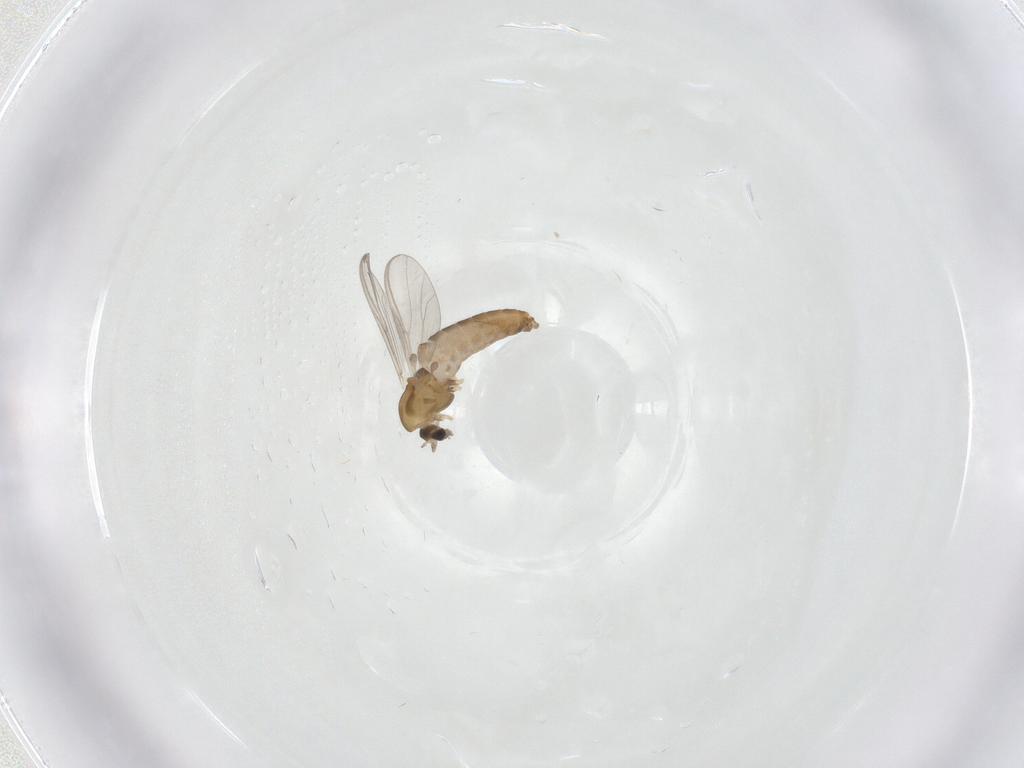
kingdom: Animalia
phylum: Arthropoda
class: Insecta
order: Diptera
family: Chironomidae
